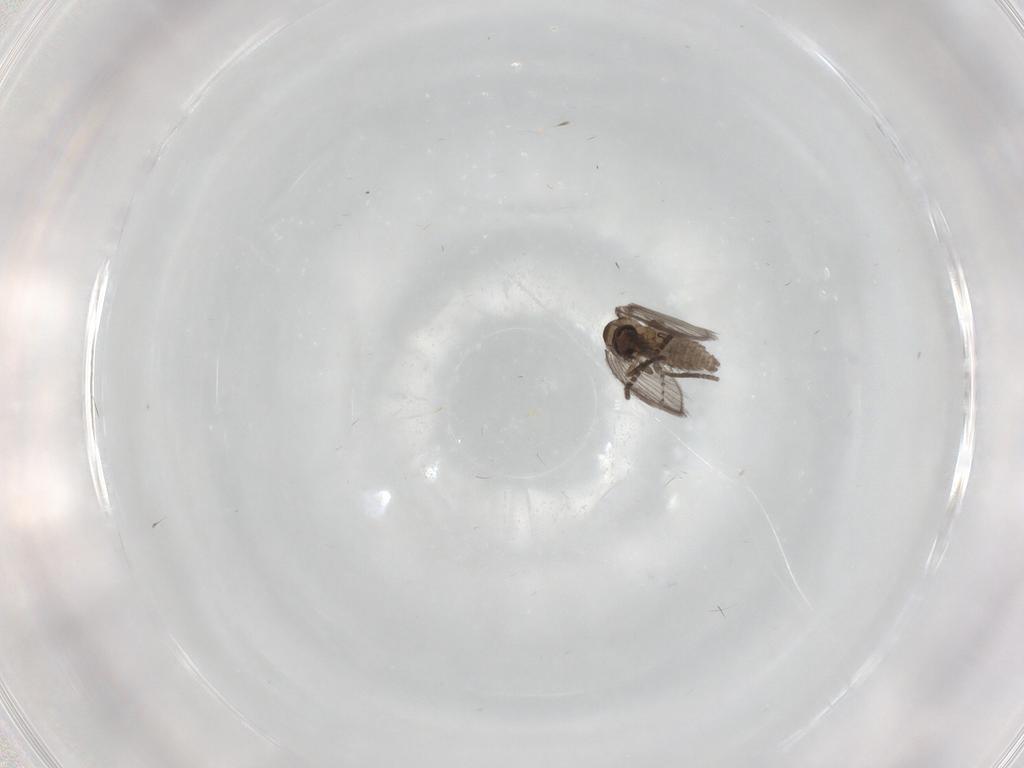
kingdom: Animalia
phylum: Arthropoda
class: Insecta
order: Diptera
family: Psychodidae
